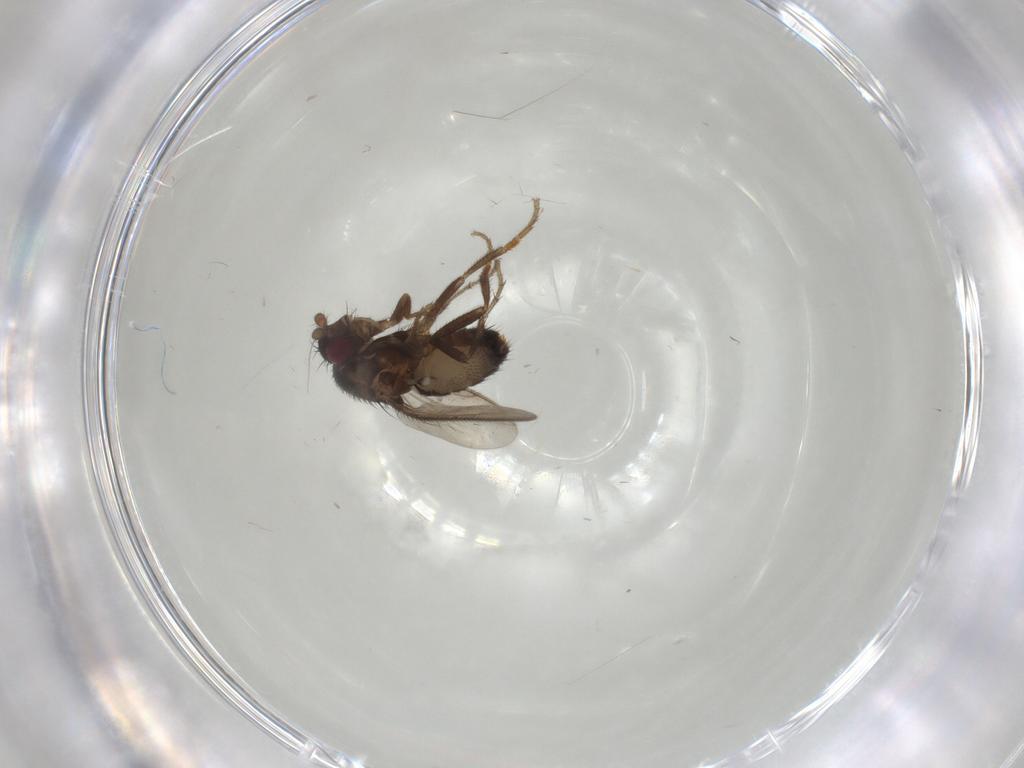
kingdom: Animalia
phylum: Arthropoda
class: Insecta
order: Diptera
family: Sphaeroceridae
